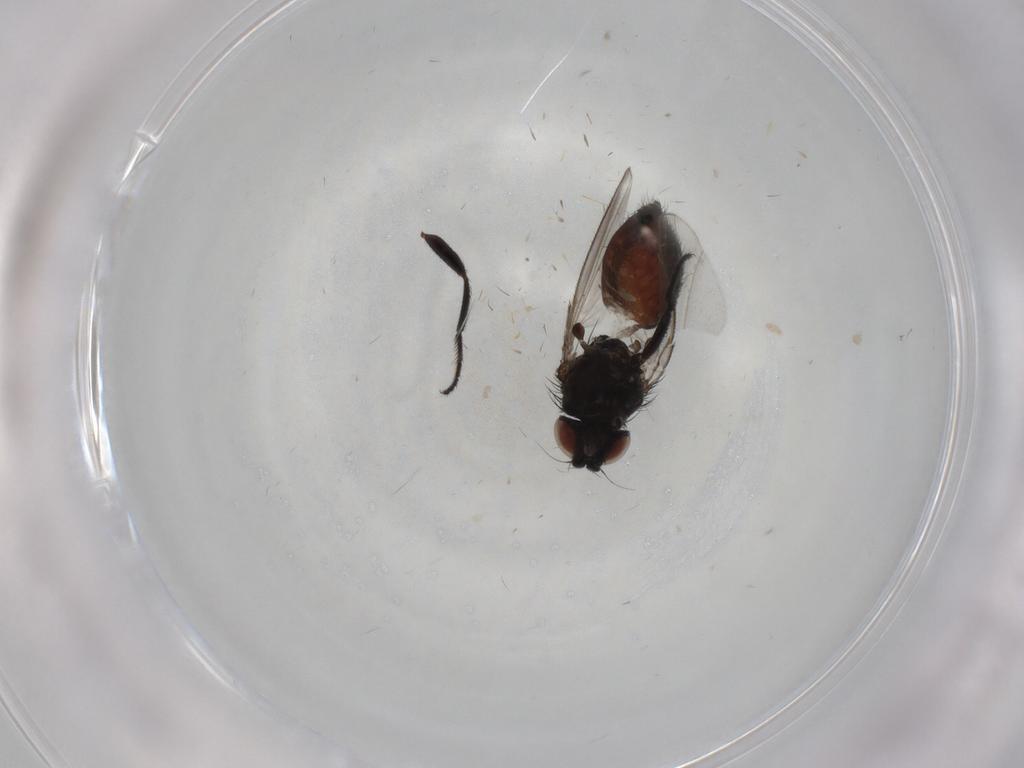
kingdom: Animalia
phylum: Arthropoda
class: Insecta
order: Diptera
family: Milichiidae
